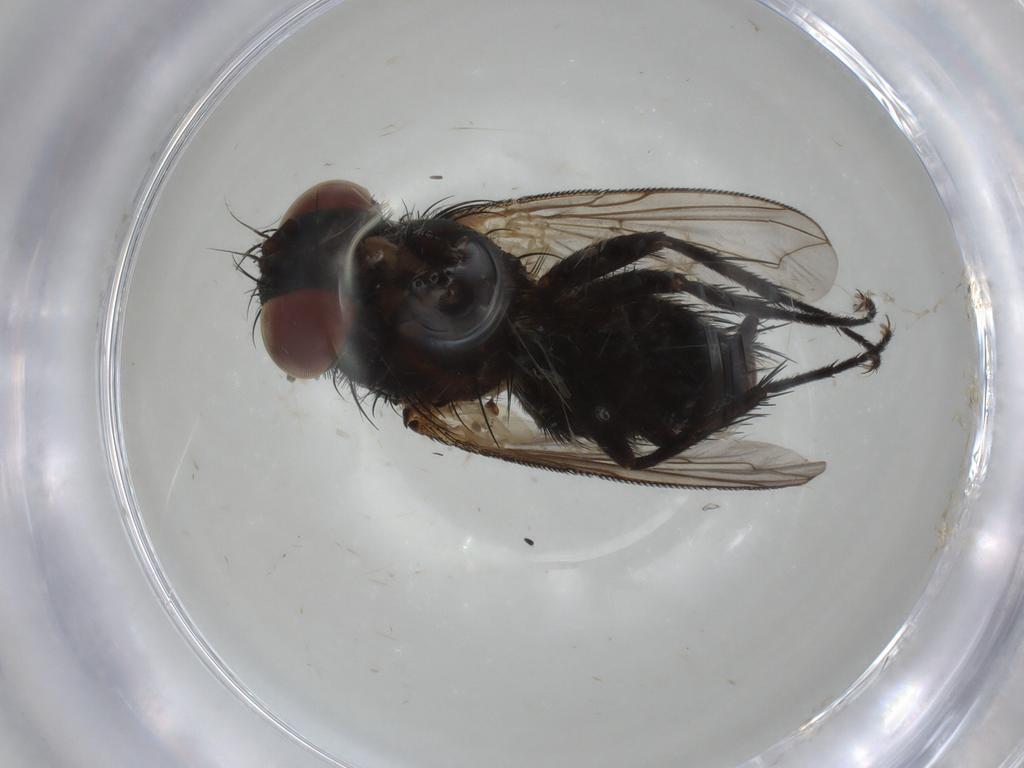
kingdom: Animalia
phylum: Arthropoda
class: Insecta
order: Diptera
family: Tachinidae
